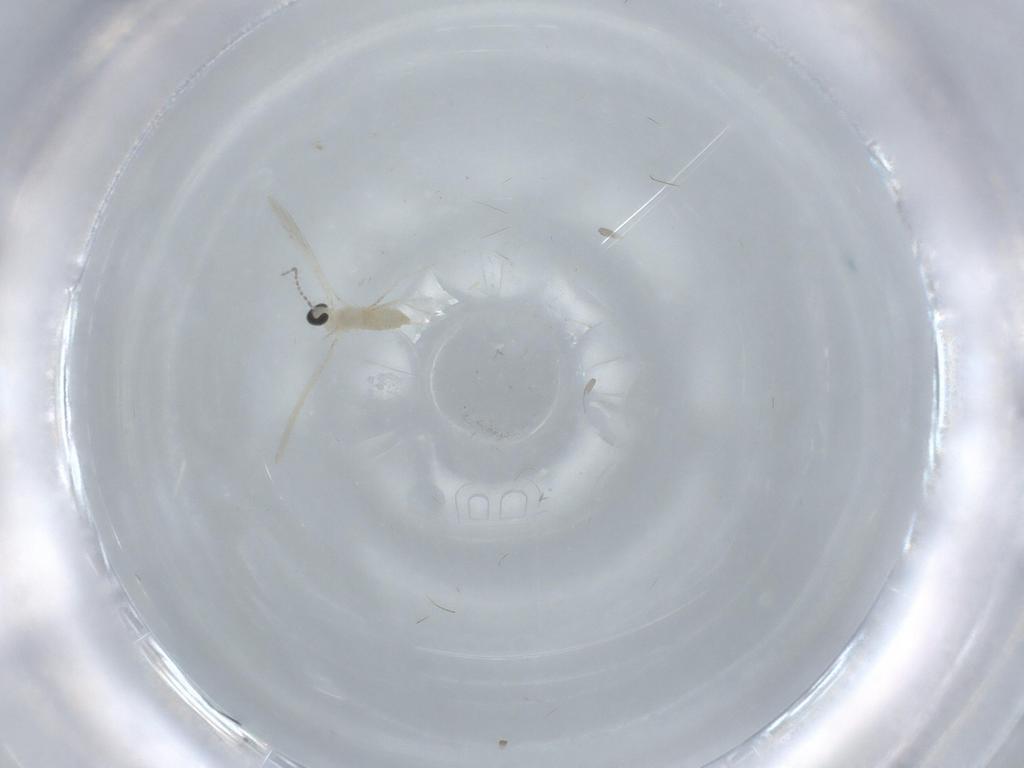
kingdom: Animalia
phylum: Arthropoda
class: Insecta
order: Diptera
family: Cecidomyiidae
